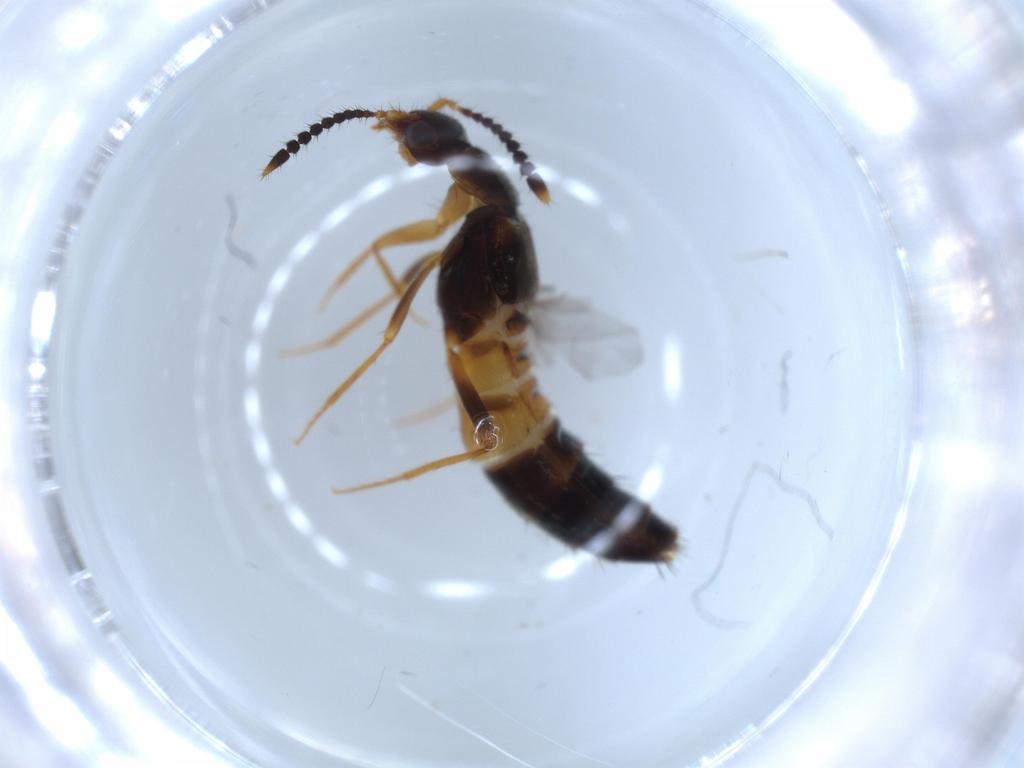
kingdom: Animalia
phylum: Arthropoda
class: Insecta
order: Coleoptera
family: Staphylinidae
